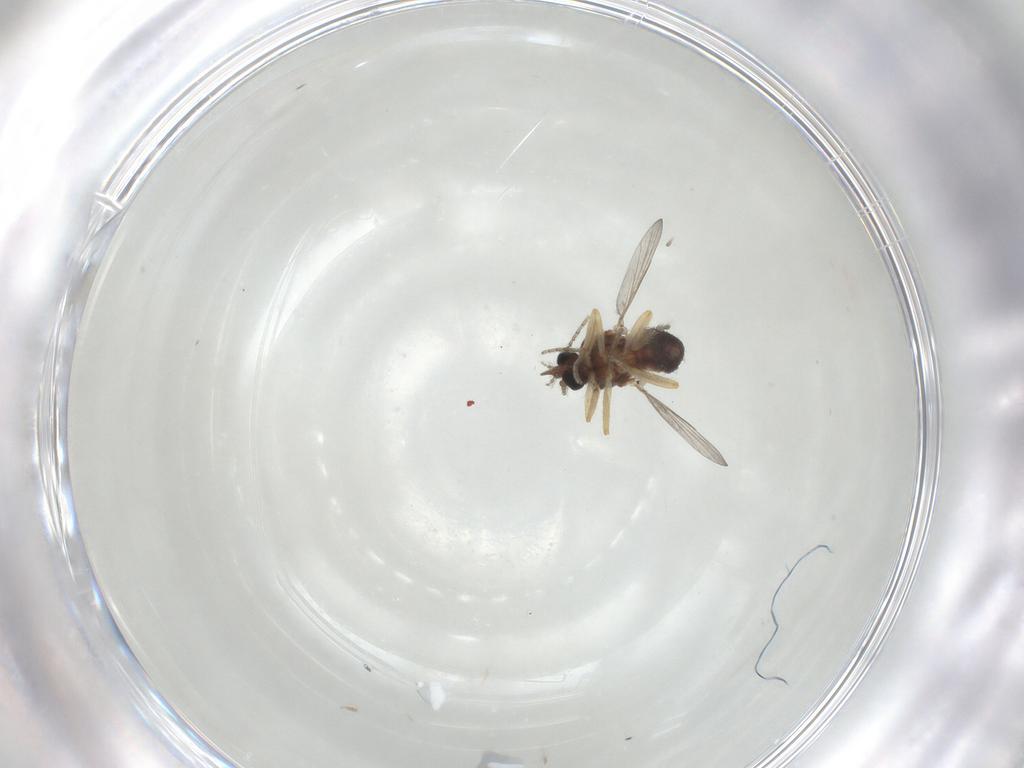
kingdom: Animalia
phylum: Arthropoda
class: Insecta
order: Diptera
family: Ceratopogonidae
